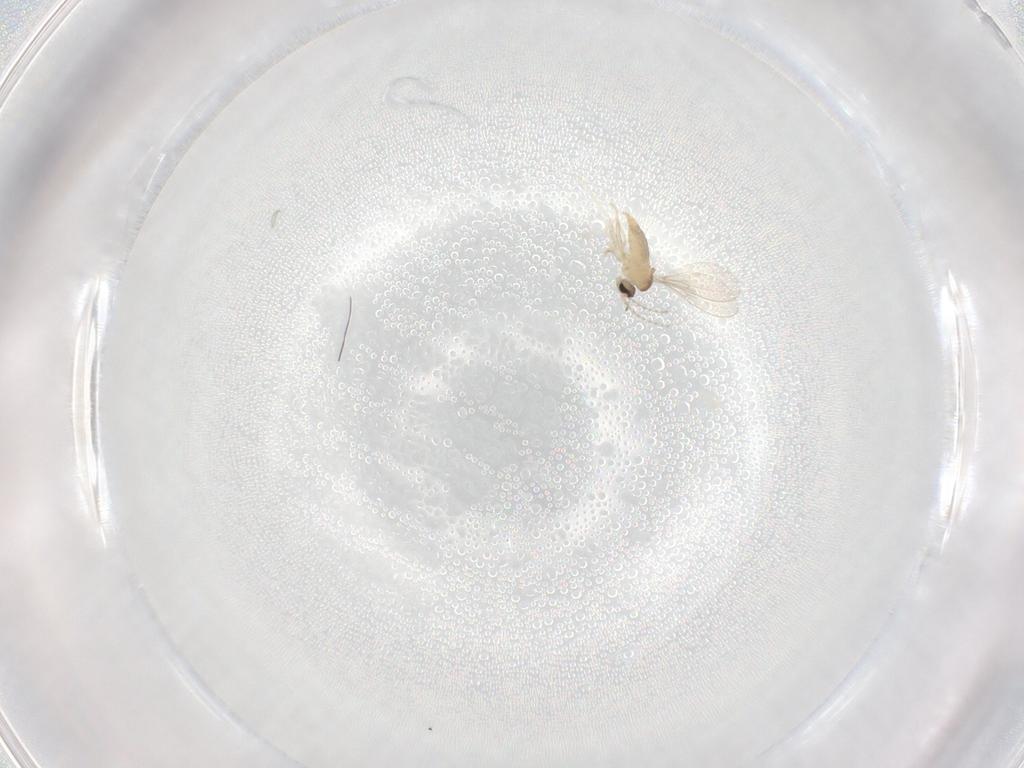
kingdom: Animalia
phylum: Arthropoda
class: Insecta
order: Diptera
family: Cecidomyiidae
